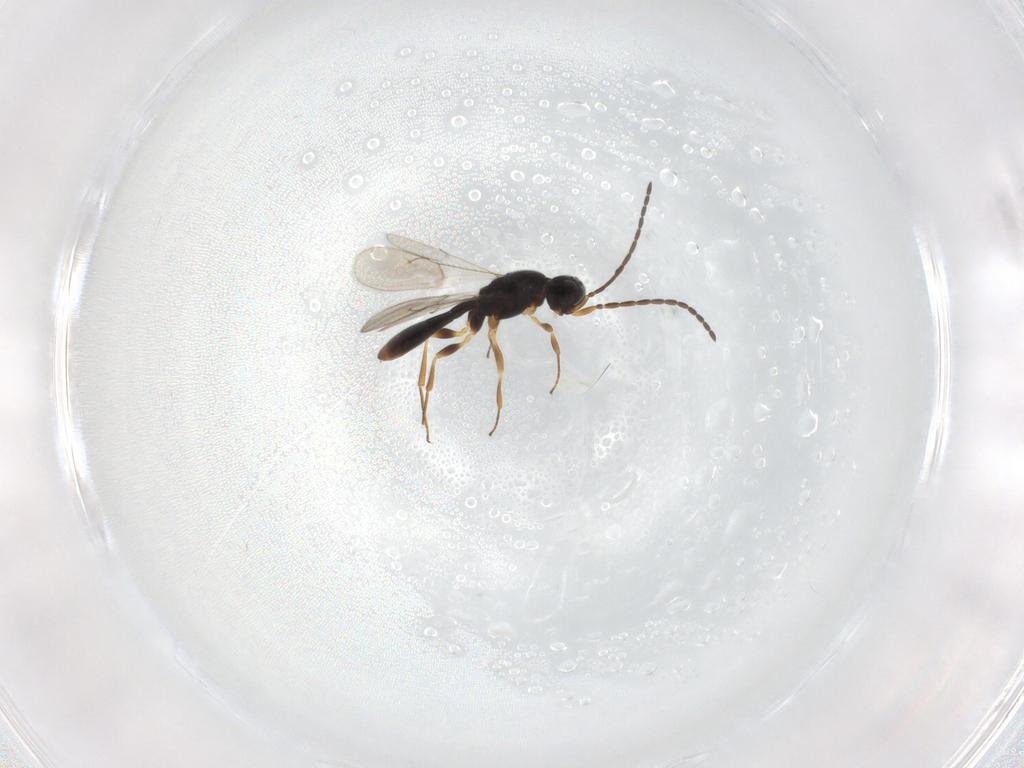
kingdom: Animalia
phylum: Arthropoda
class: Insecta
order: Hymenoptera
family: Scelionidae
